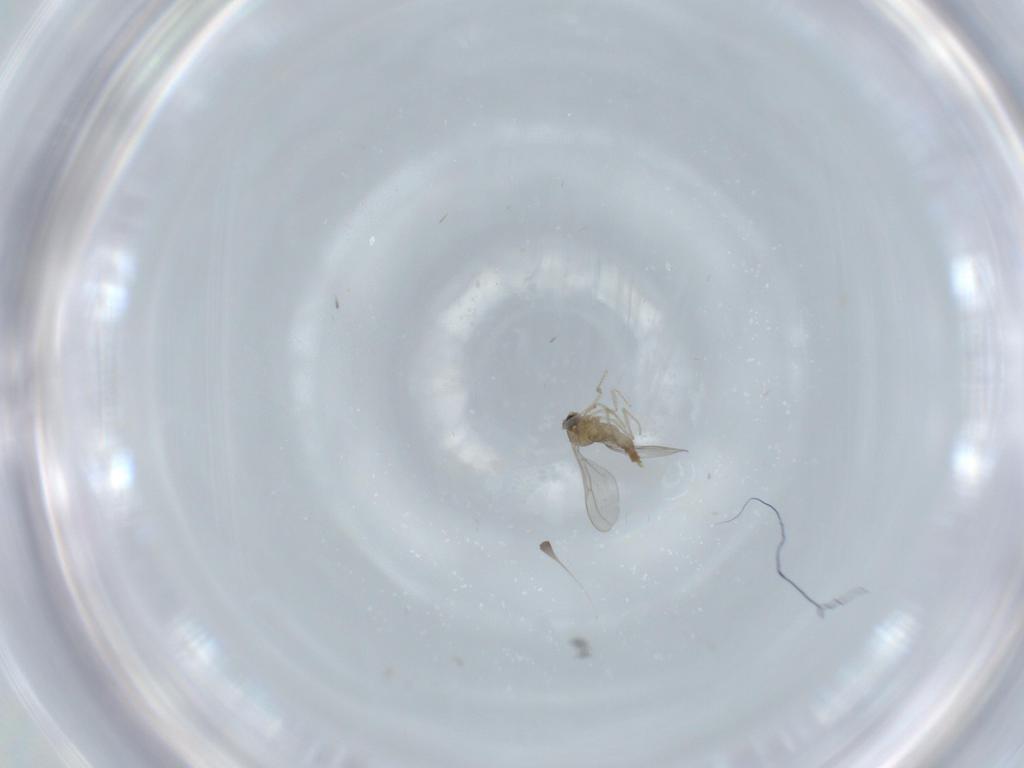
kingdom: Animalia
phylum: Arthropoda
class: Insecta
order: Diptera
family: Cecidomyiidae
